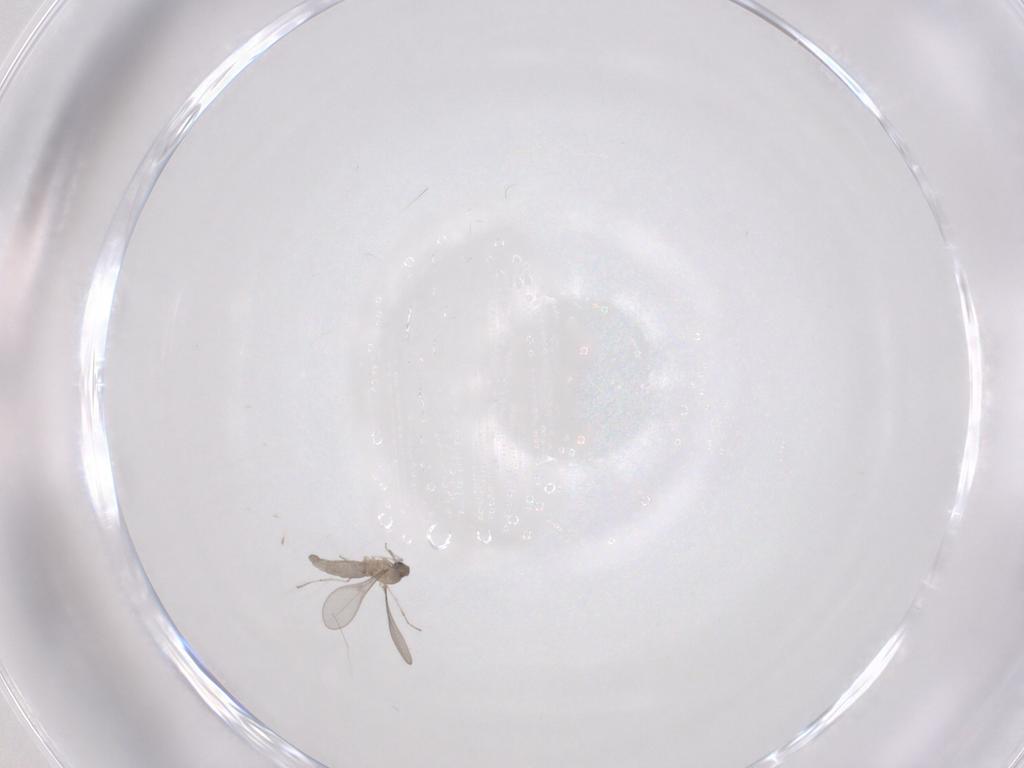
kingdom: Animalia
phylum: Arthropoda
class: Insecta
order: Diptera
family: Cecidomyiidae
